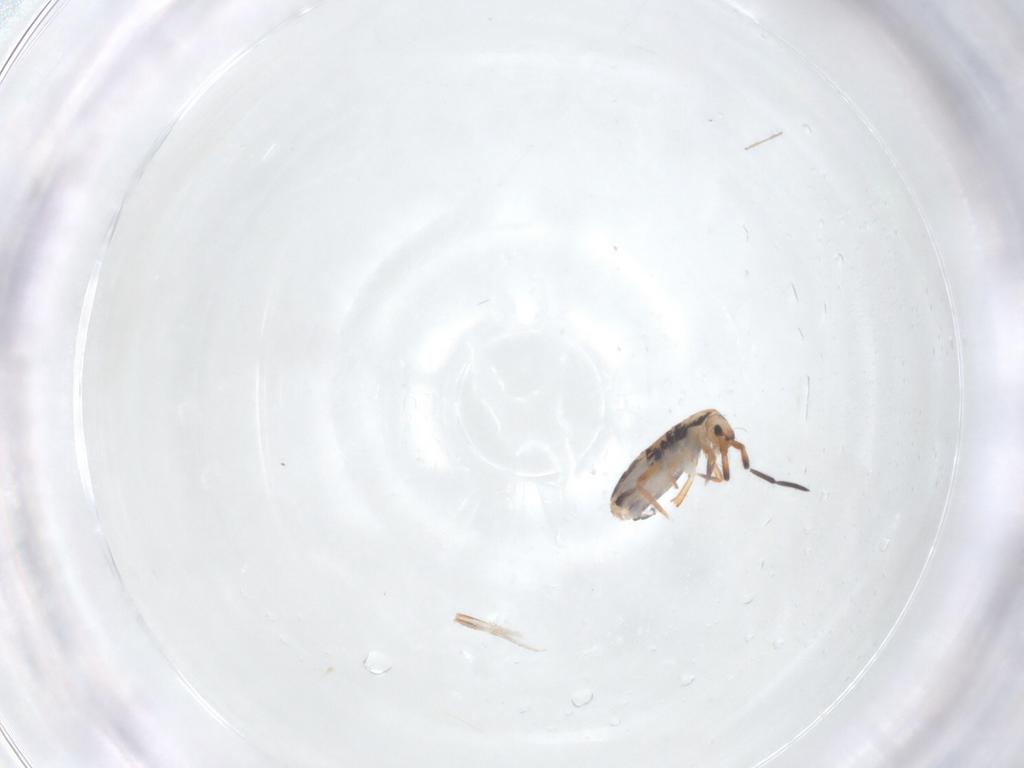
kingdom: Animalia
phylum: Arthropoda
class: Collembola
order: Entomobryomorpha
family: Entomobryidae
